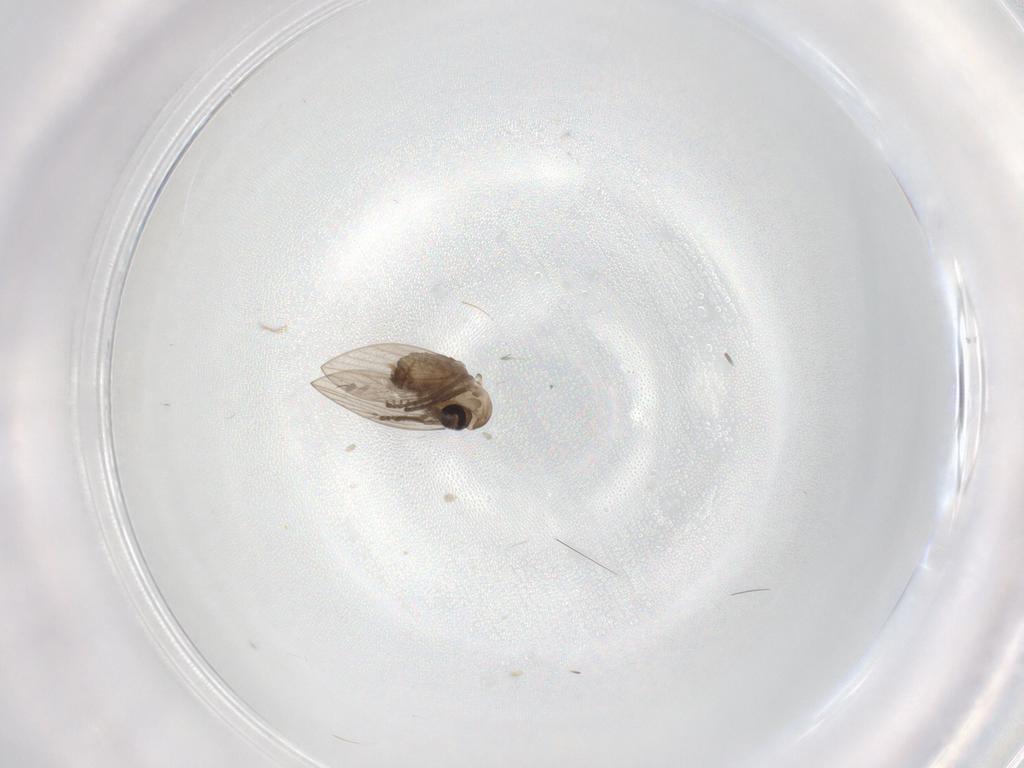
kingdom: Animalia
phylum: Arthropoda
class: Insecta
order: Diptera
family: Psychodidae
